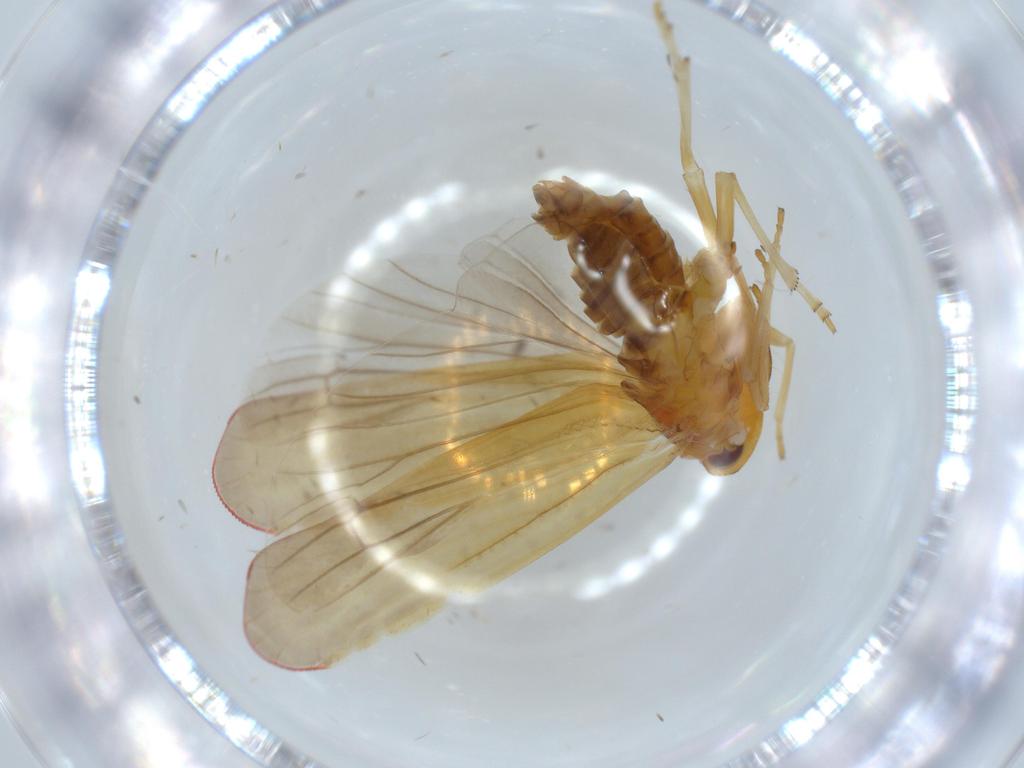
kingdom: Animalia
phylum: Arthropoda
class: Insecta
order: Hemiptera
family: Derbidae
